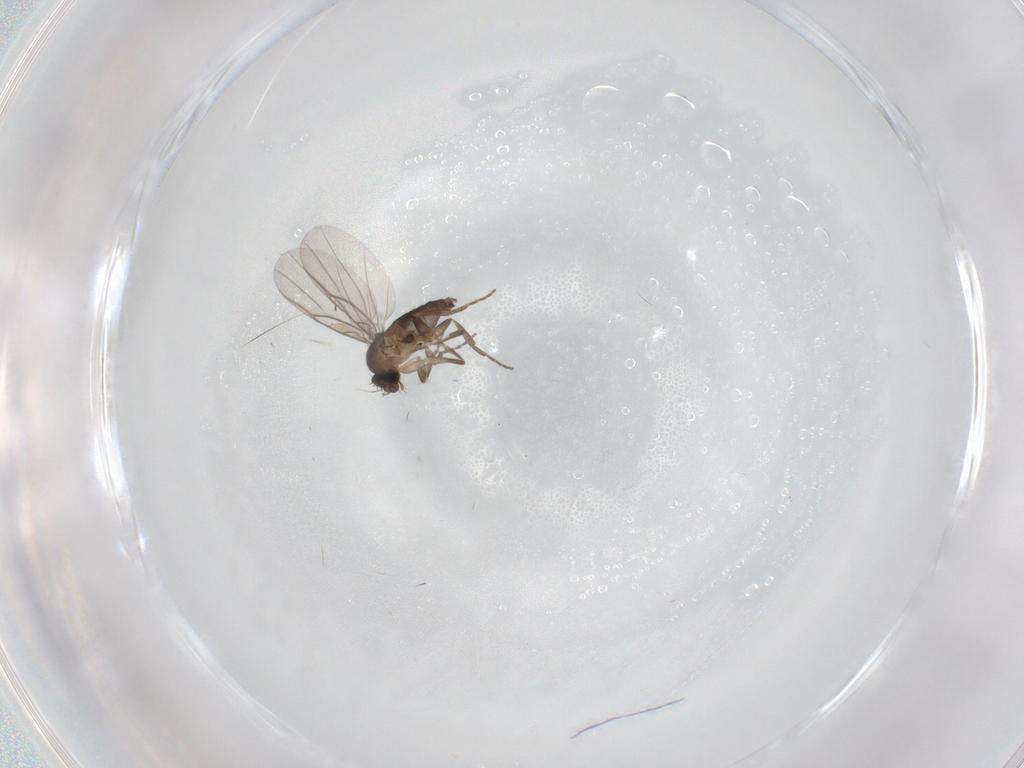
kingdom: Animalia
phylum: Arthropoda
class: Insecta
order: Diptera
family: Phoridae
